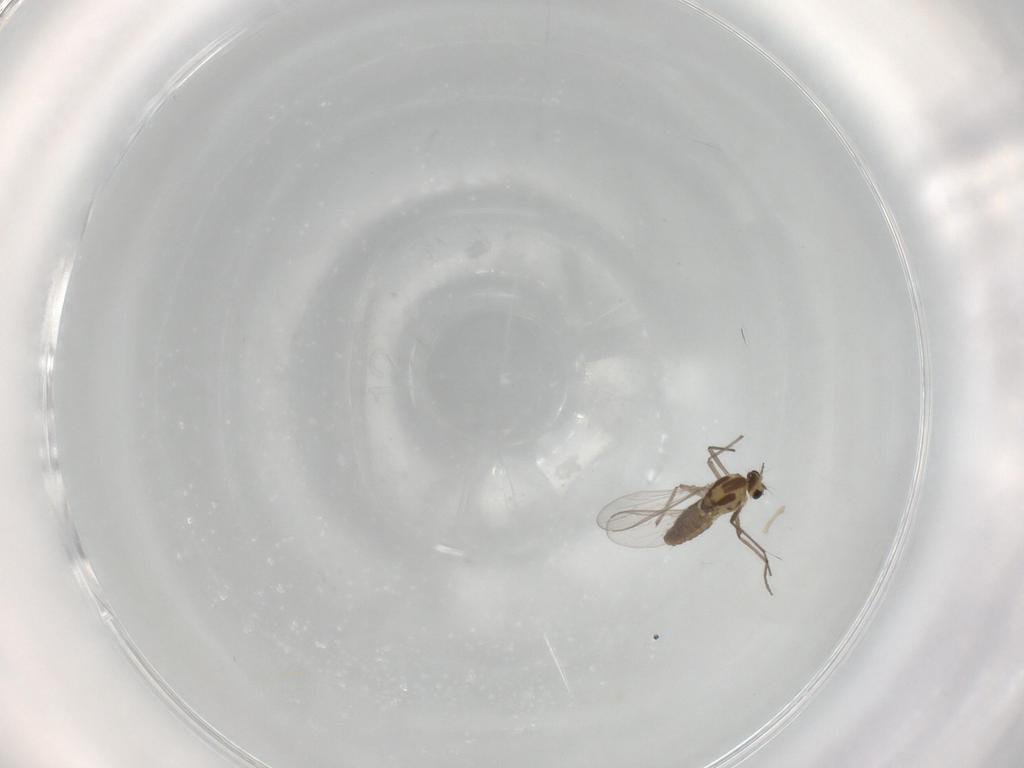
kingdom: Animalia
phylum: Arthropoda
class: Insecta
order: Diptera
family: Chironomidae
